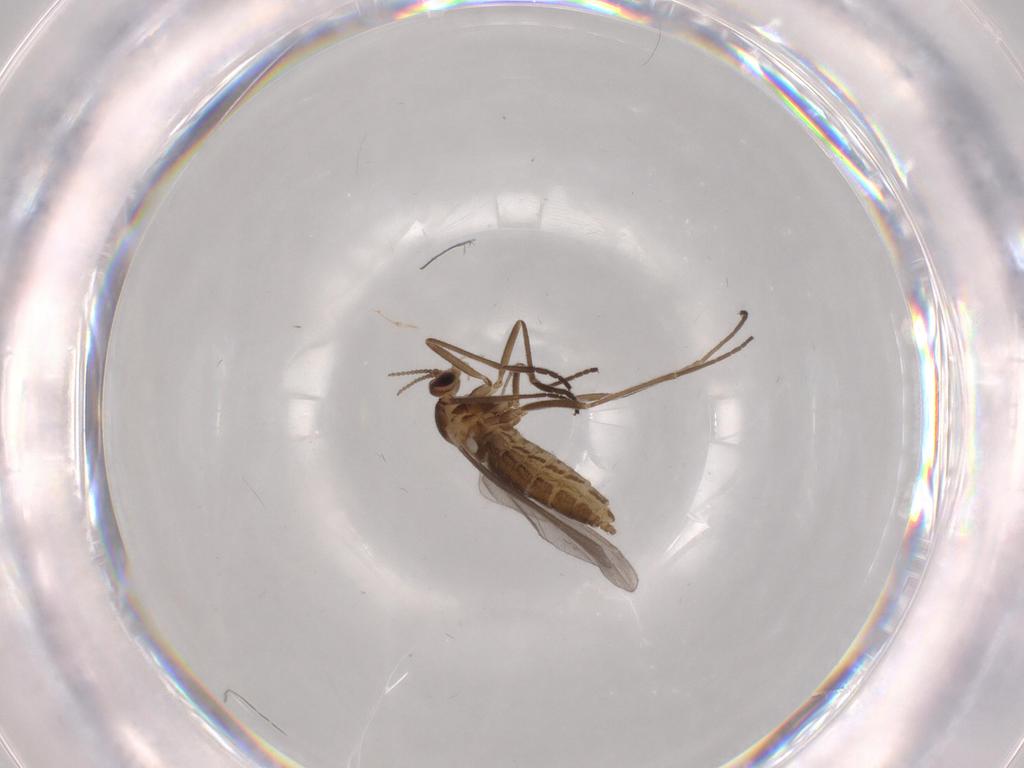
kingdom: Animalia
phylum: Arthropoda
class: Insecta
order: Diptera
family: Cecidomyiidae
